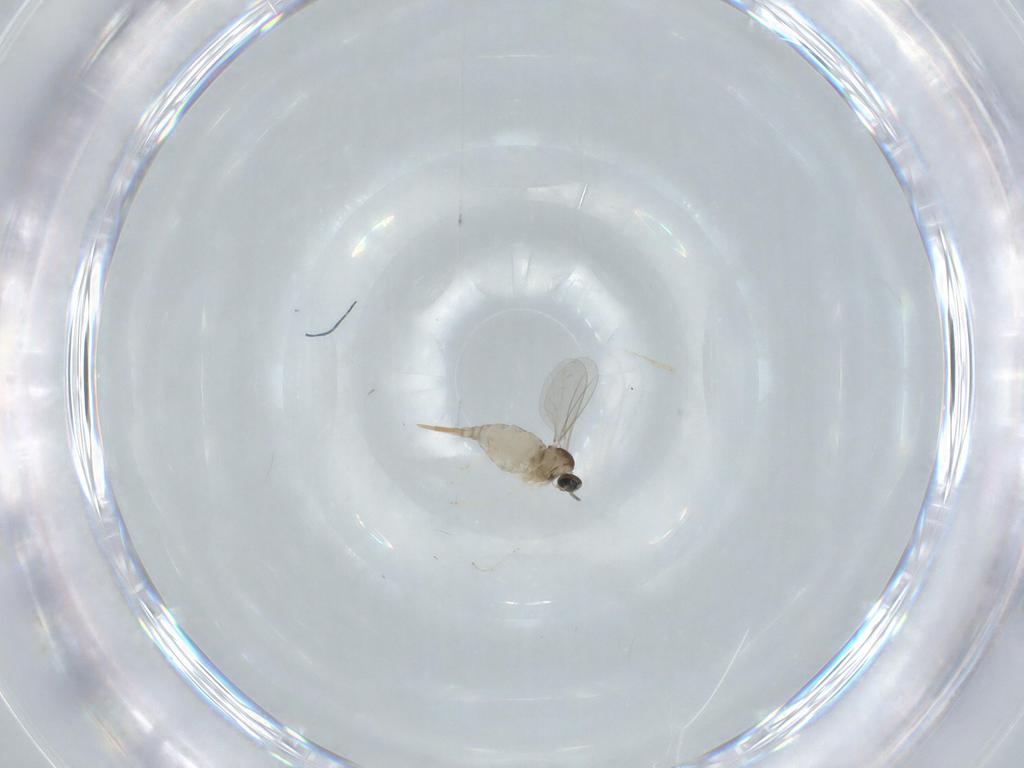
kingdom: Animalia
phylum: Arthropoda
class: Insecta
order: Diptera
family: Cecidomyiidae
